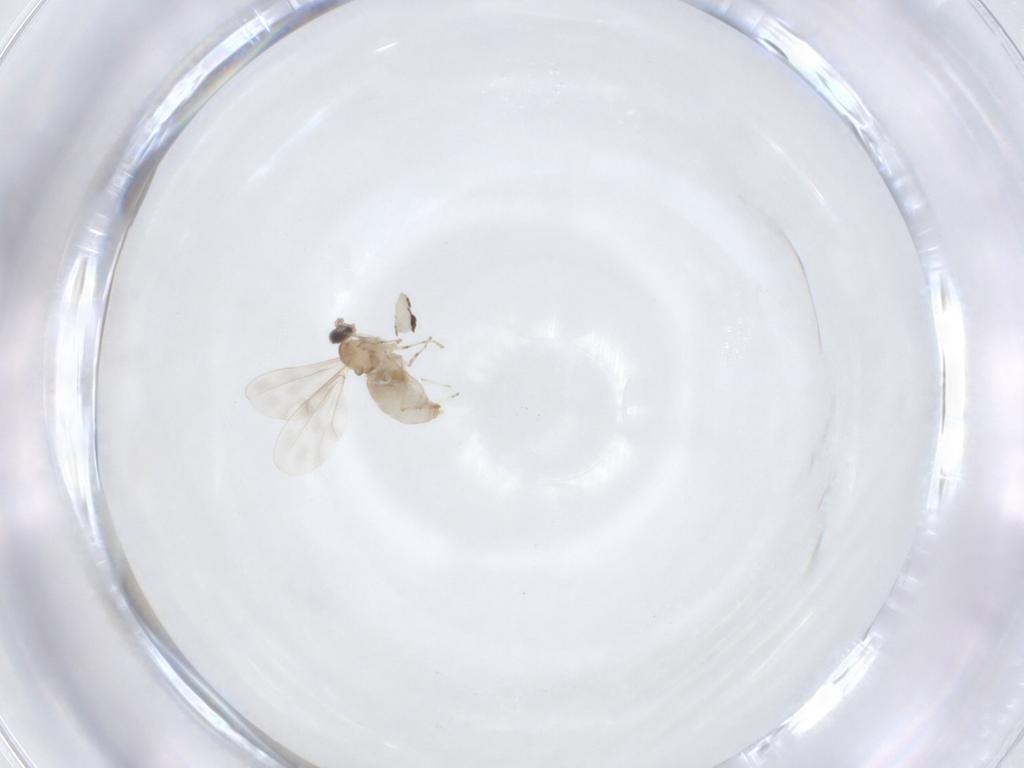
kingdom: Animalia
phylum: Arthropoda
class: Insecta
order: Diptera
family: Cecidomyiidae
